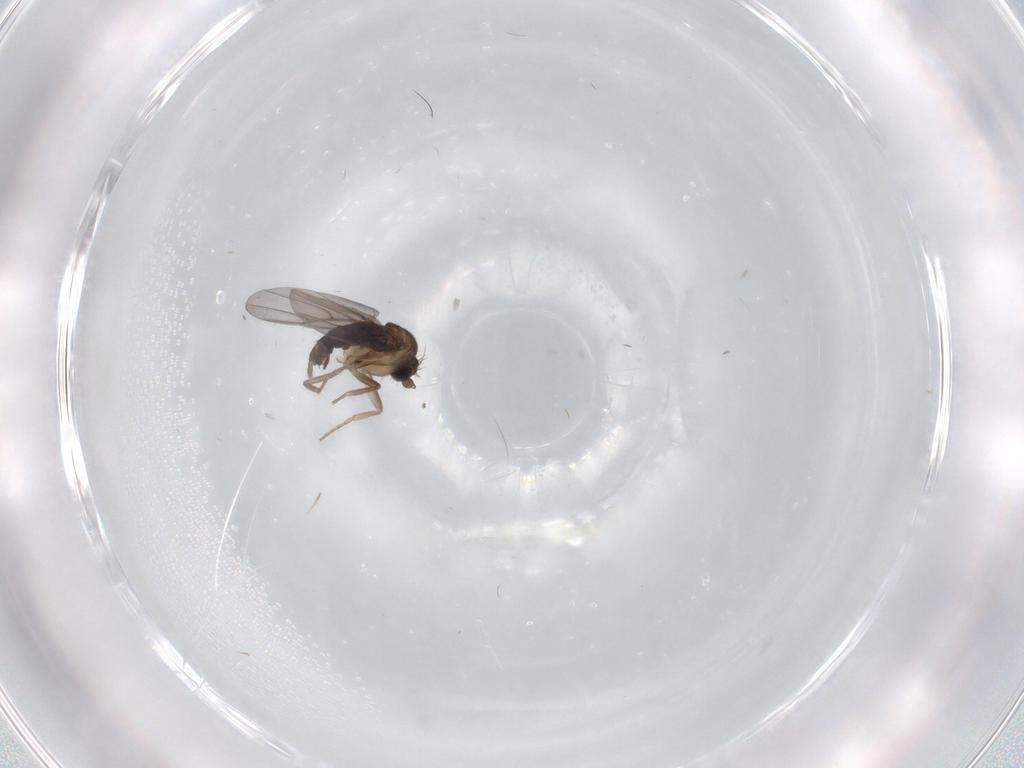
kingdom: Animalia
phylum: Arthropoda
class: Insecta
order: Diptera
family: Phoridae
